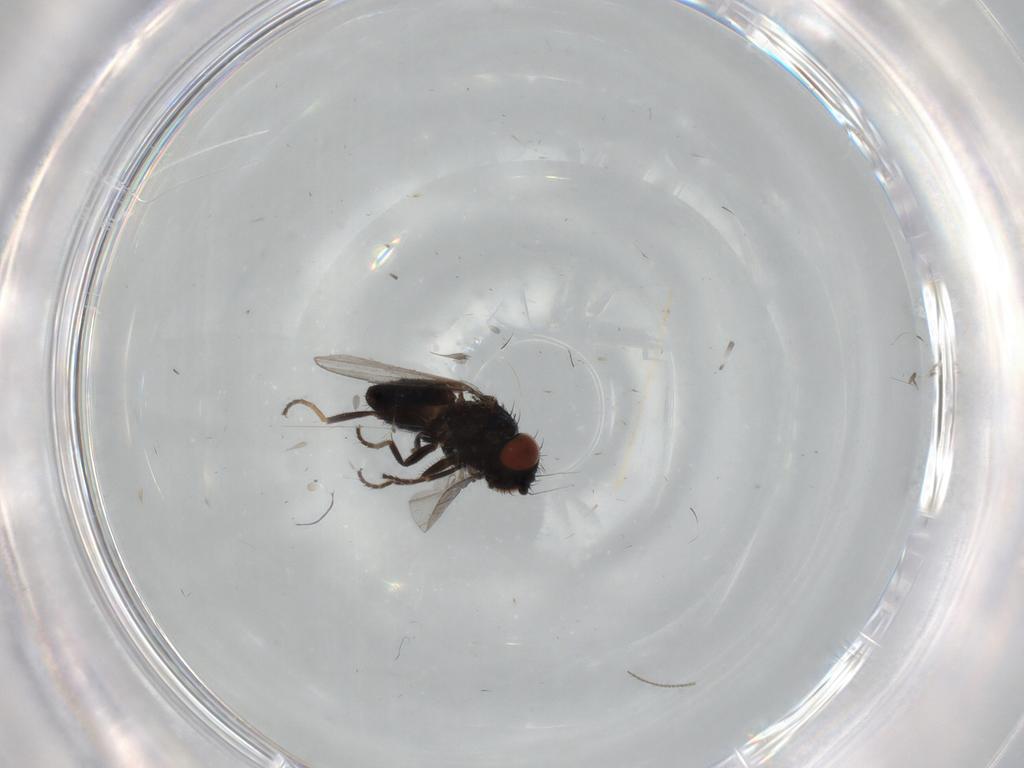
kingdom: Animalia
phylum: Arthropoda
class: Insecta
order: Diptera
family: Milichiidae
